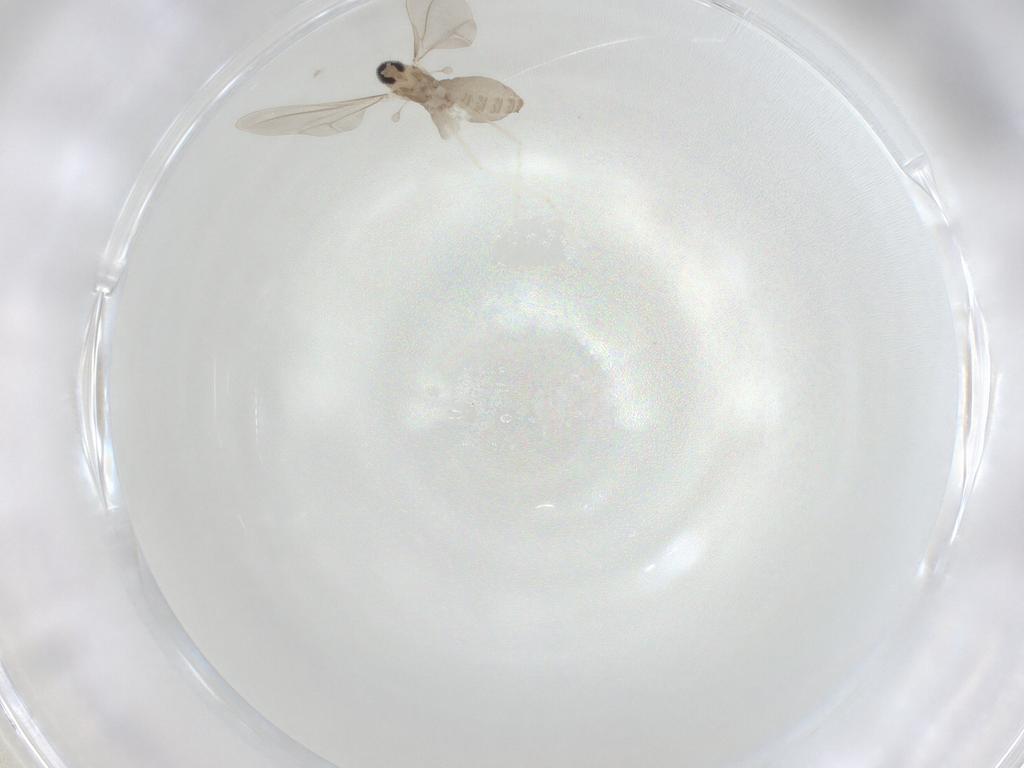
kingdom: Animalia
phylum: Arthropoda
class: Insecta
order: Diptera
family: Cecidomyiidae
